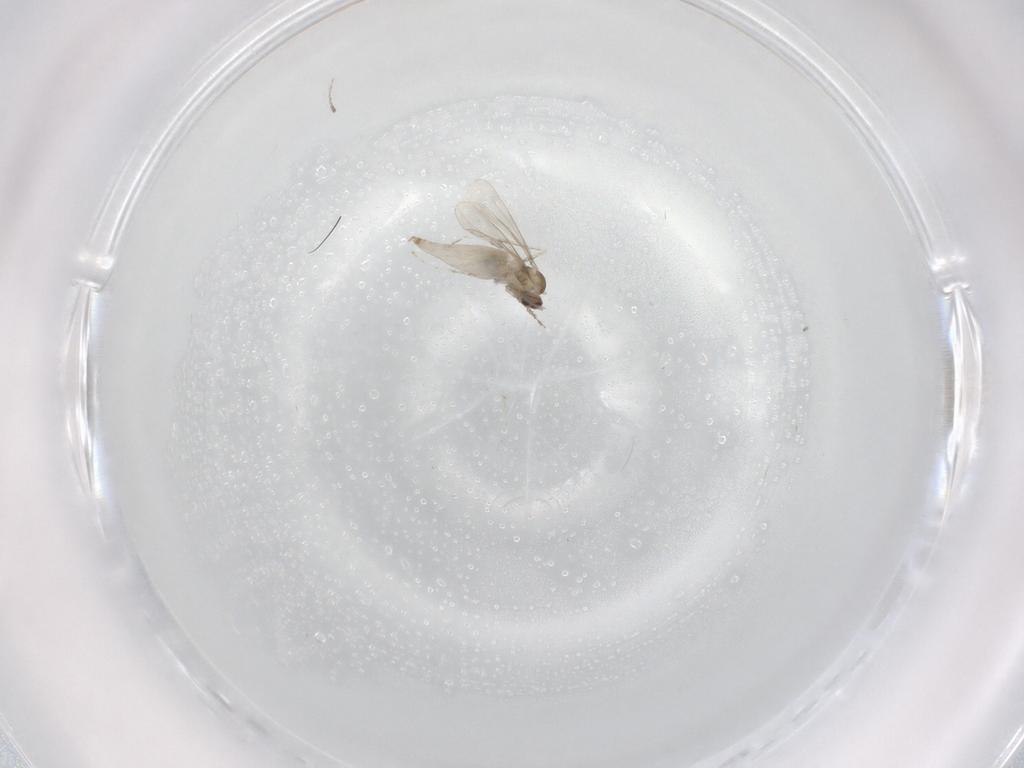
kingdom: Animalia
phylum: Arthropoda
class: Insecta
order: Diptera
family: Cecidomyiidae
